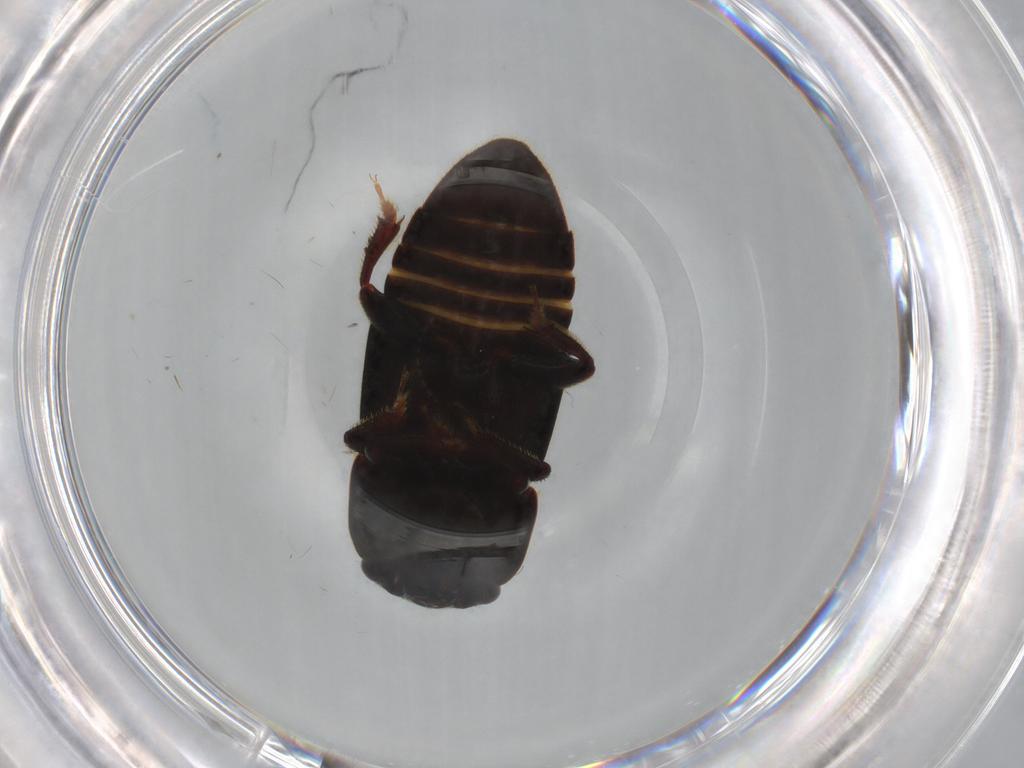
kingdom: Animalia
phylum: Arthropoda
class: Insecta
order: Coleoptera
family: Nitidulidae
